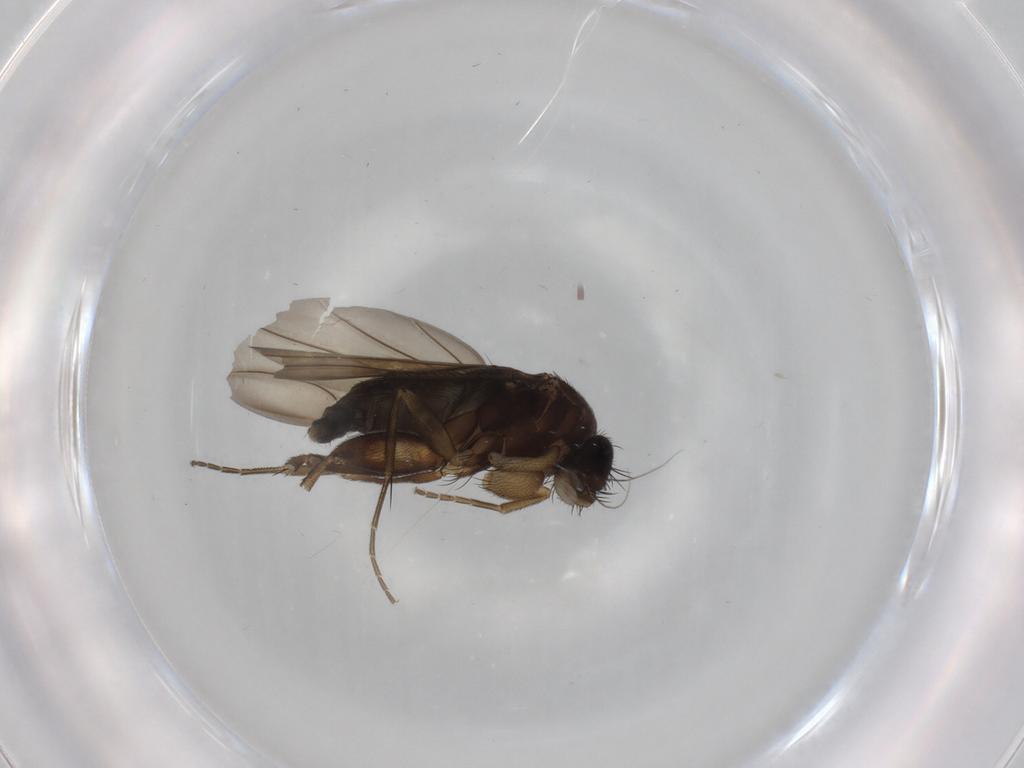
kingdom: Animalia
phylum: Arthropoda
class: Insecta
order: Diptera
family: Phoridae
